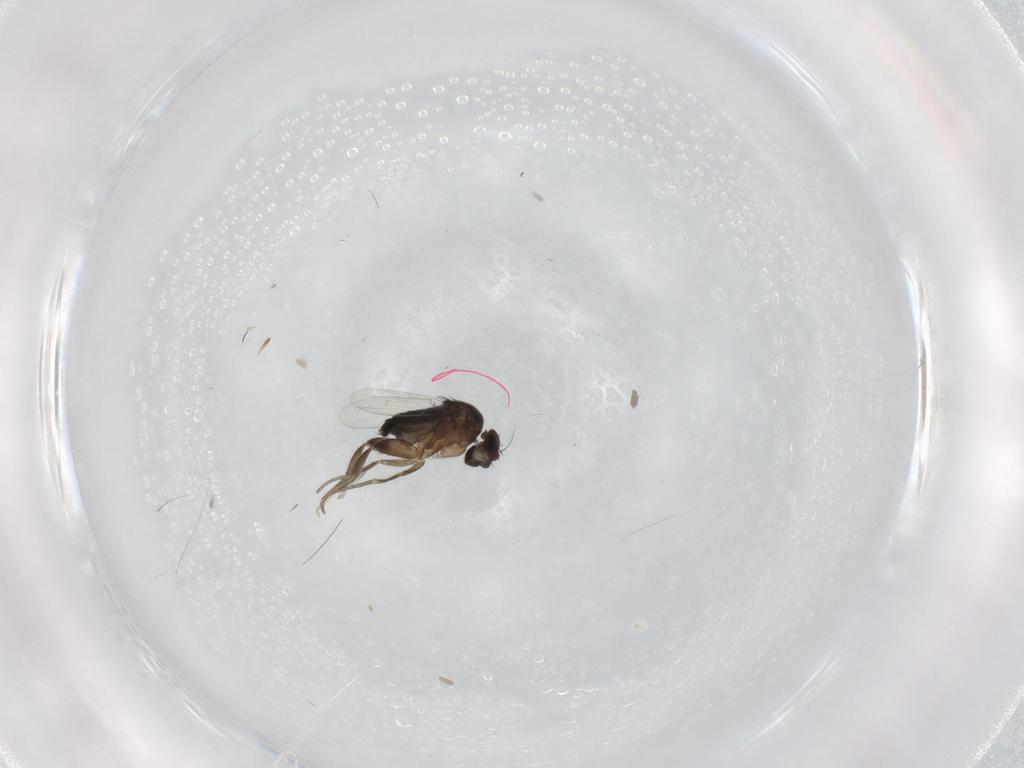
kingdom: Animalia
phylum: Arthropoda
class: Insecta
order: Diptera
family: Phoridae
